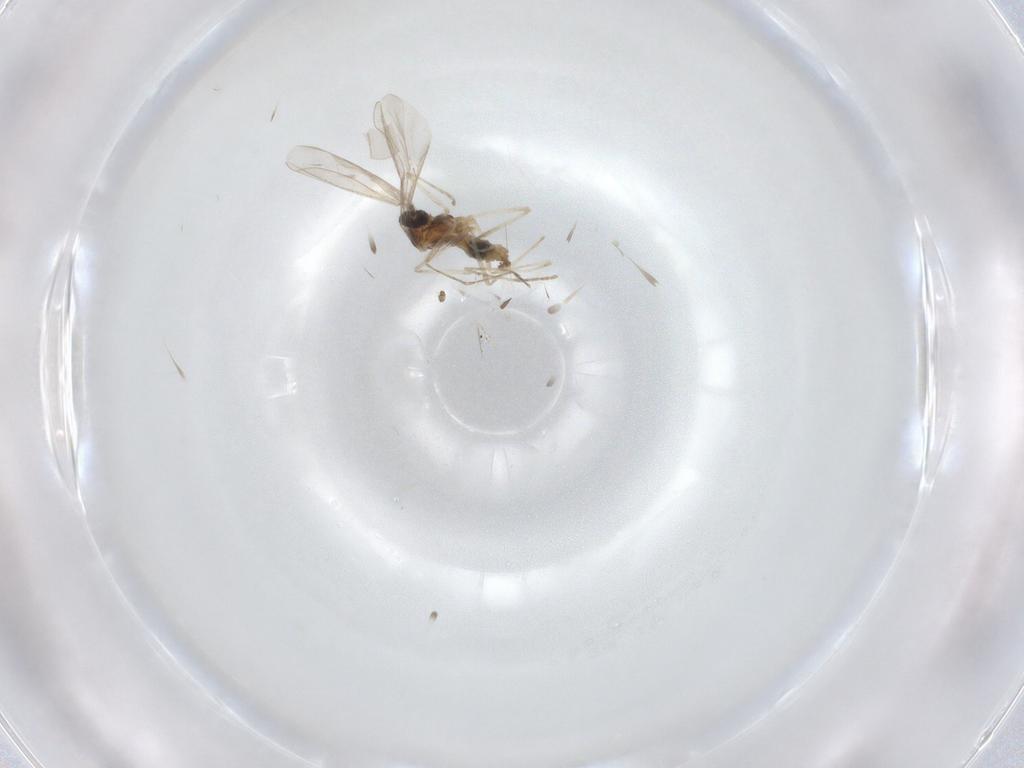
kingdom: Animalia
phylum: Arthropoda
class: Insecta
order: Diptera
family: Cecidomyiidae
